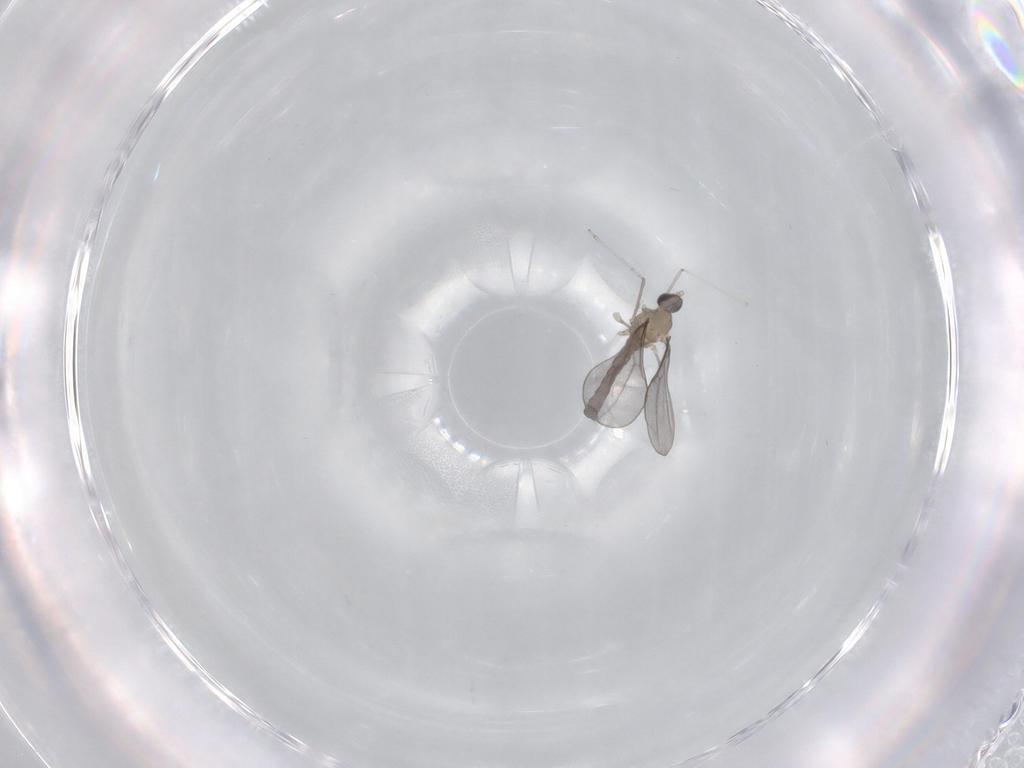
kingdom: Animalia
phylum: Arthropoda
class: Insecta
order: Diptera
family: Cecidomyiidae
